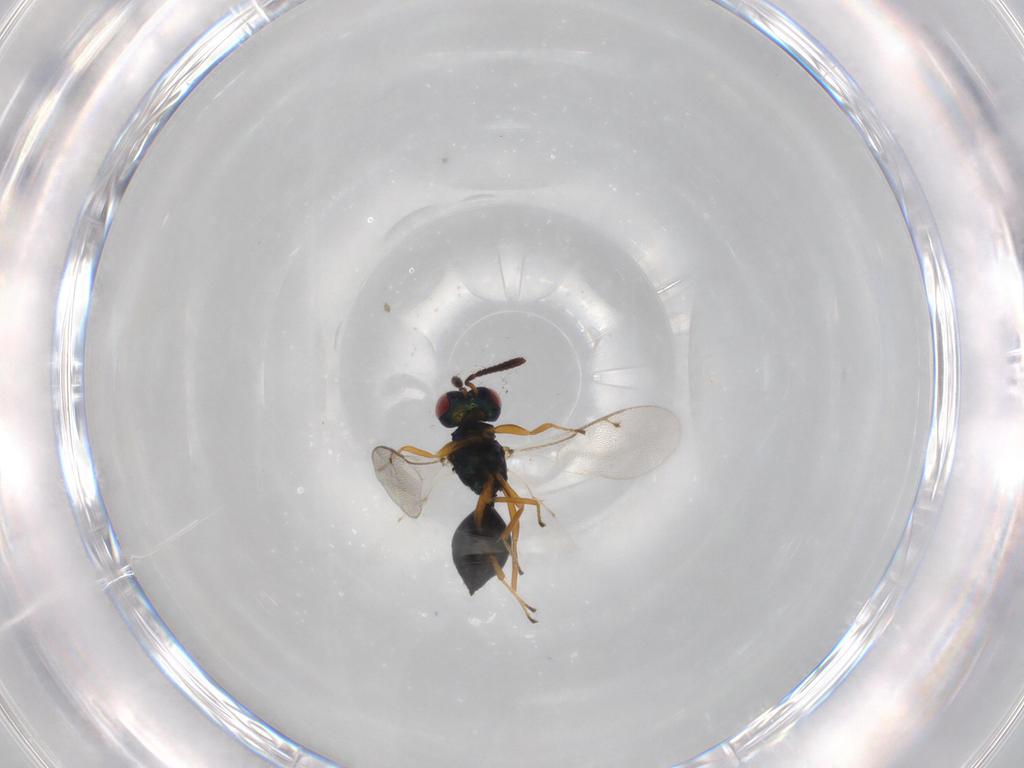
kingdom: Animalia
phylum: Arthropoda
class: Insecta
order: Hymenoptera
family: Pteromalidae
